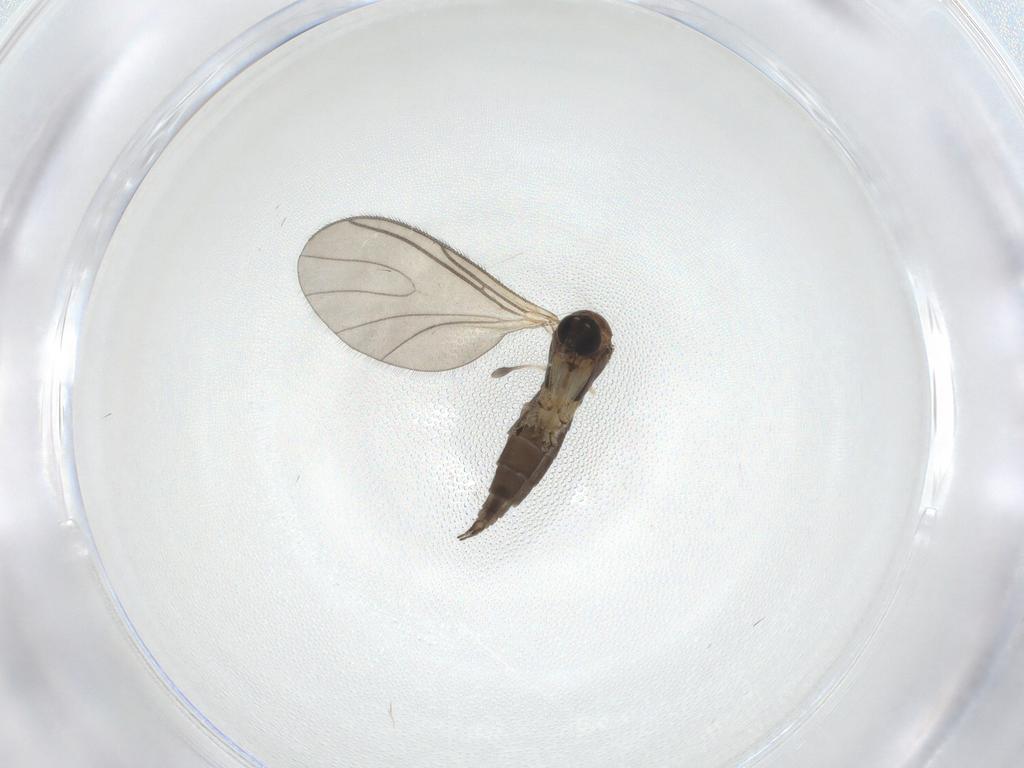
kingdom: Animalia
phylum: Arthropoda
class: Insecta
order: Diptera
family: Sciaridae
